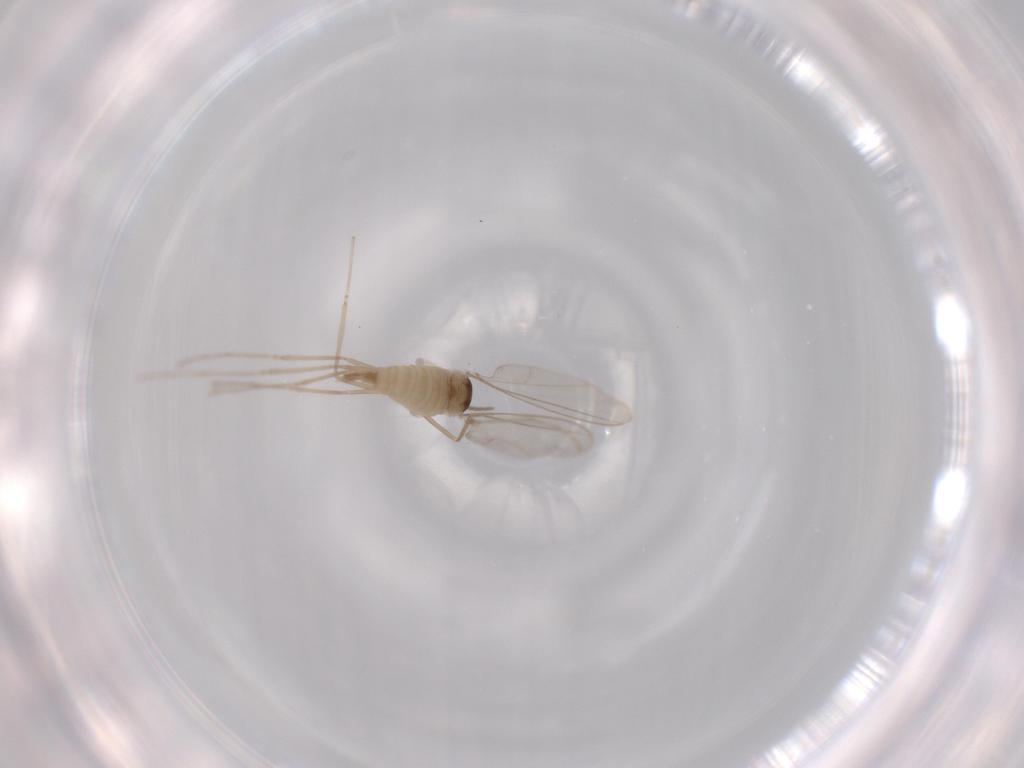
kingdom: Animalia
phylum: Arthropoda
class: Insecta
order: Diptera
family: Cecidomyiidae
